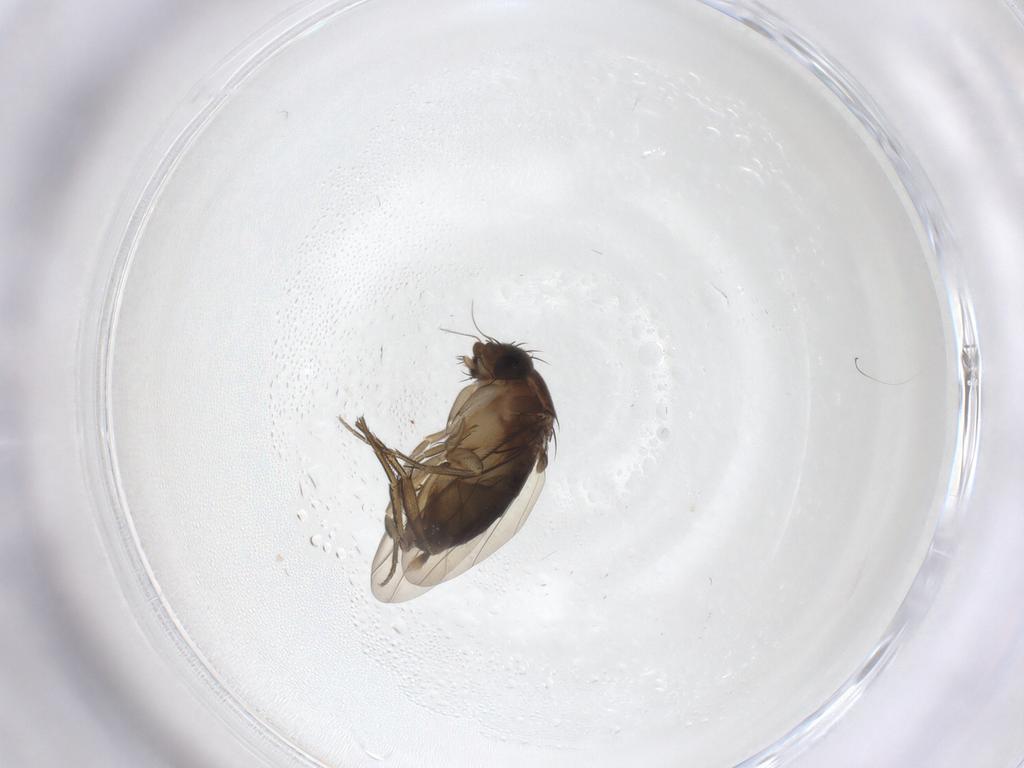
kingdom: Animalia
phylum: Arthropoda
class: Insecta
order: Diptera
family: Phoridae
